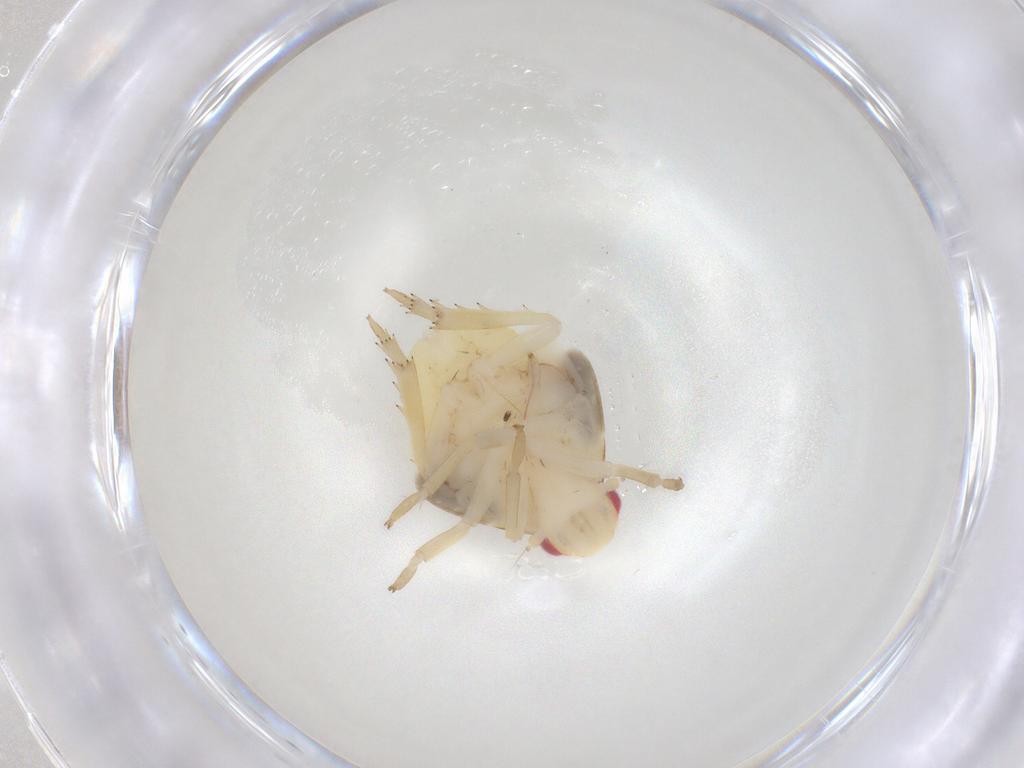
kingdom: Animalia
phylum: Arthropoda
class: Insecta
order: Hemiptera
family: Flatidae
